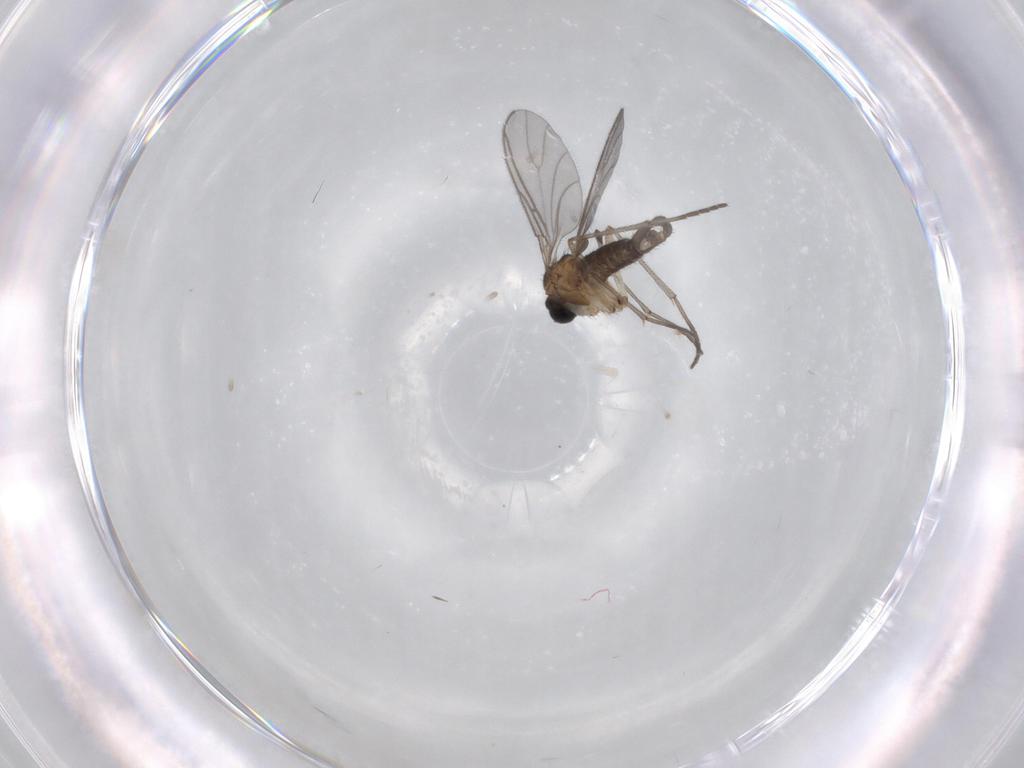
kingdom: Animalia
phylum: Arthropoda
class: Insecta
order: Diptera
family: Sciaridae
